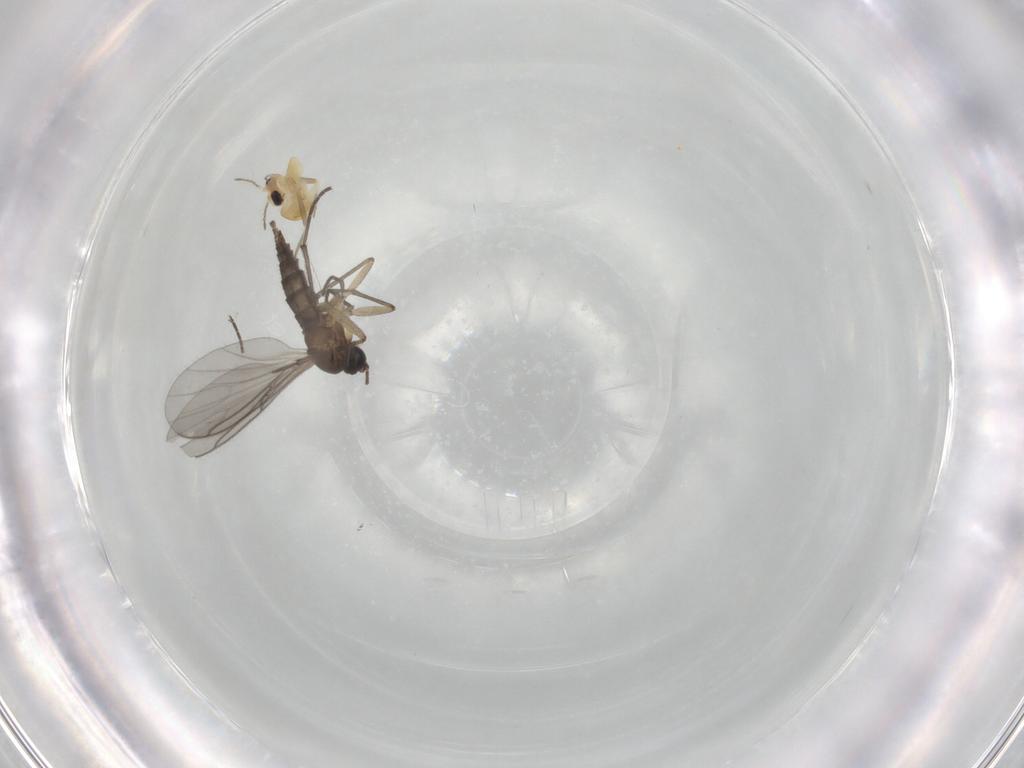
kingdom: Animalia
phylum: Arthropoda
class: Insecta
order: Diptera
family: Chironomidae
